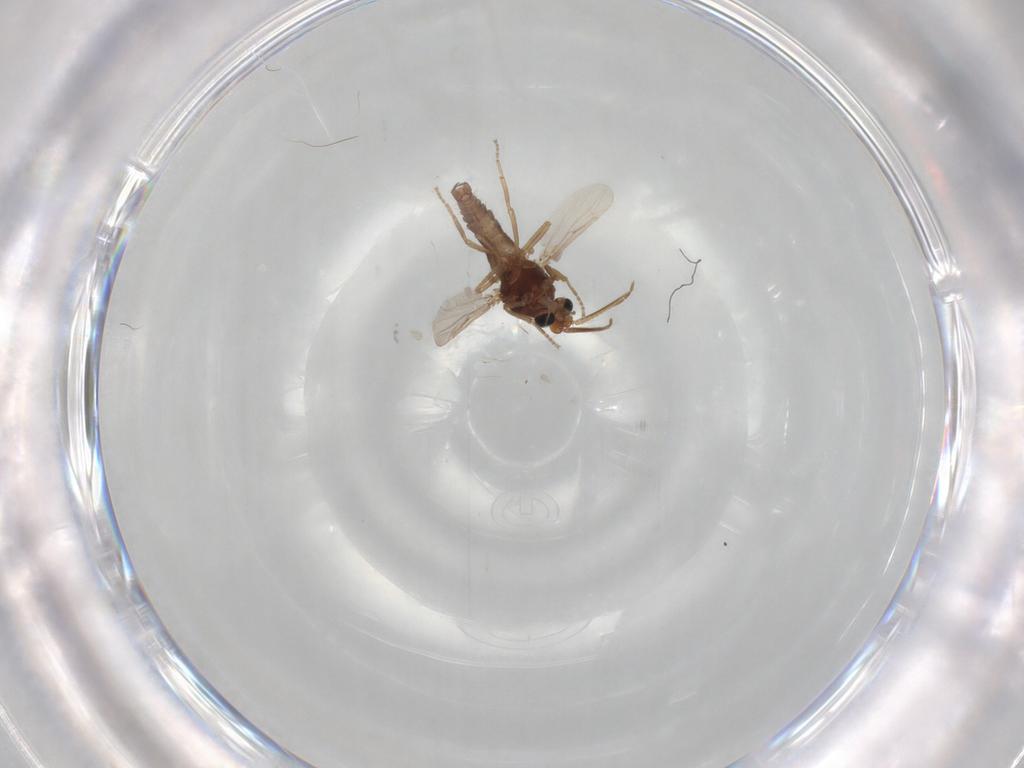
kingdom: Animalia
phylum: Arthropoda
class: Insecta
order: Diptera
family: Ceratopogonidae
